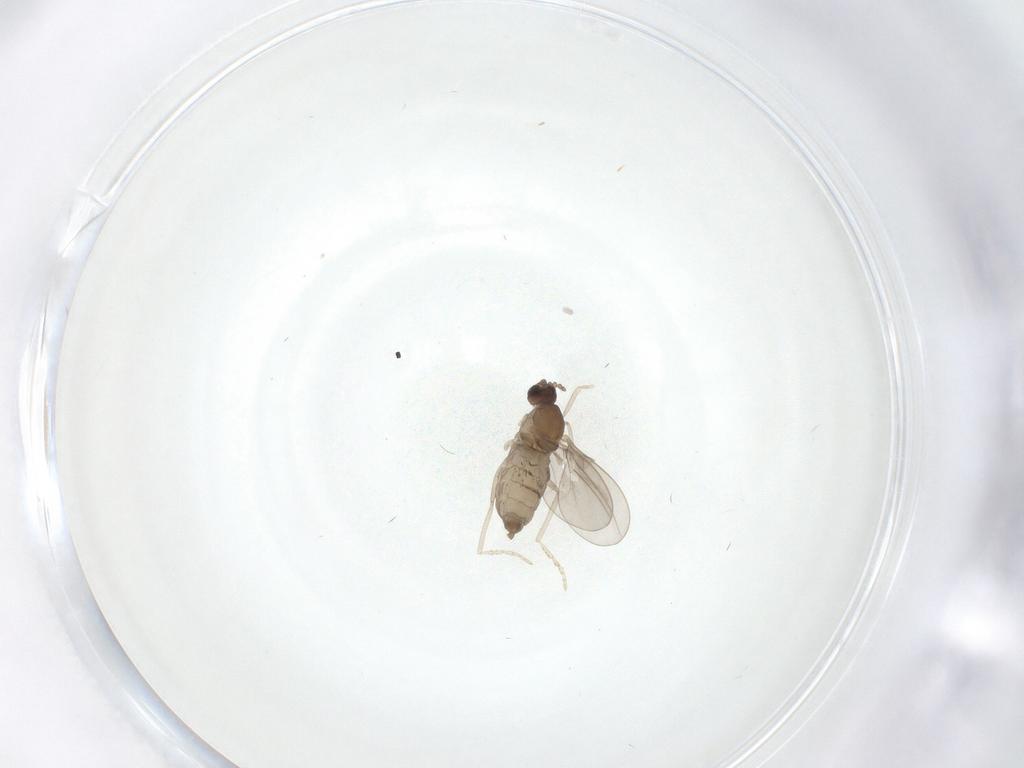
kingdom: Animalia
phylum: Arthropoda
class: Insecta
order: Diptera
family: Cecidomyiidae
